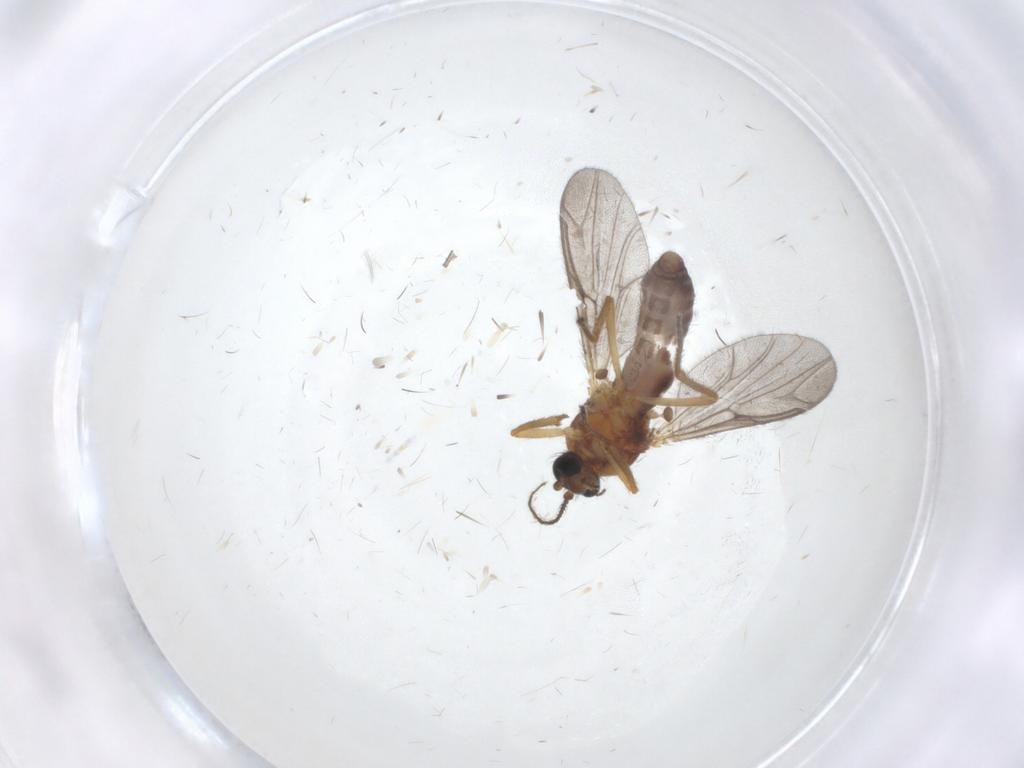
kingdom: Animalia
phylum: Arthropoda
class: Insecta
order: Diptera
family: Ceratopogonidae
